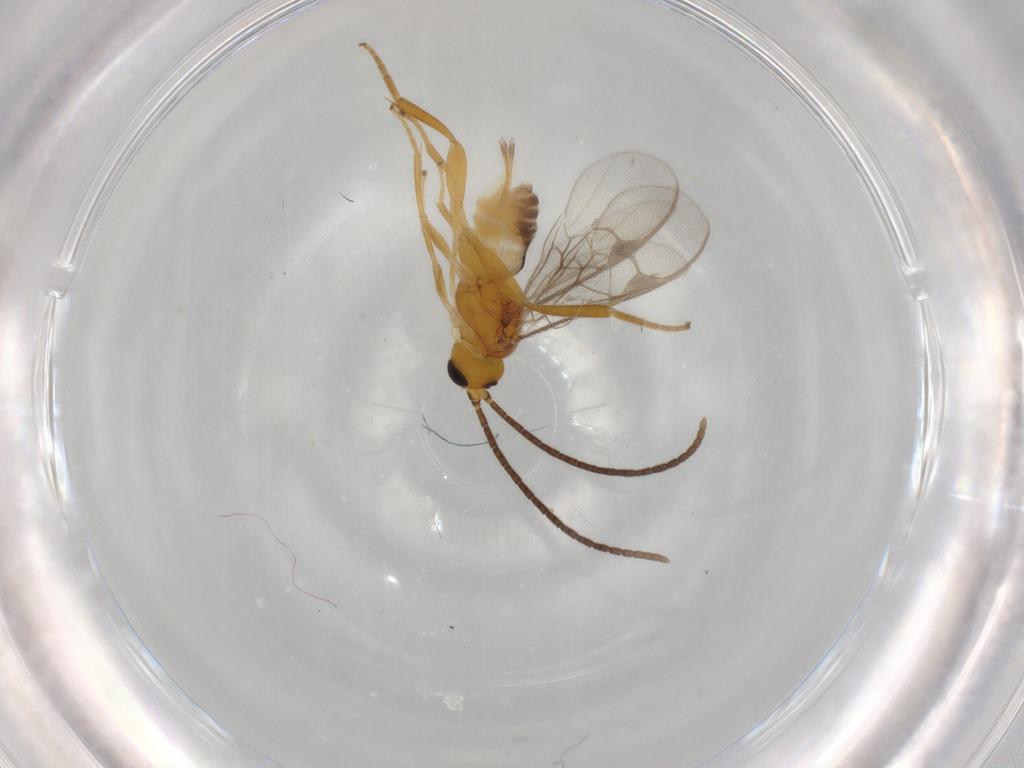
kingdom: Animalia
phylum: Arthropoda
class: Insecta
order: Hymenoptera
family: Braconidae
